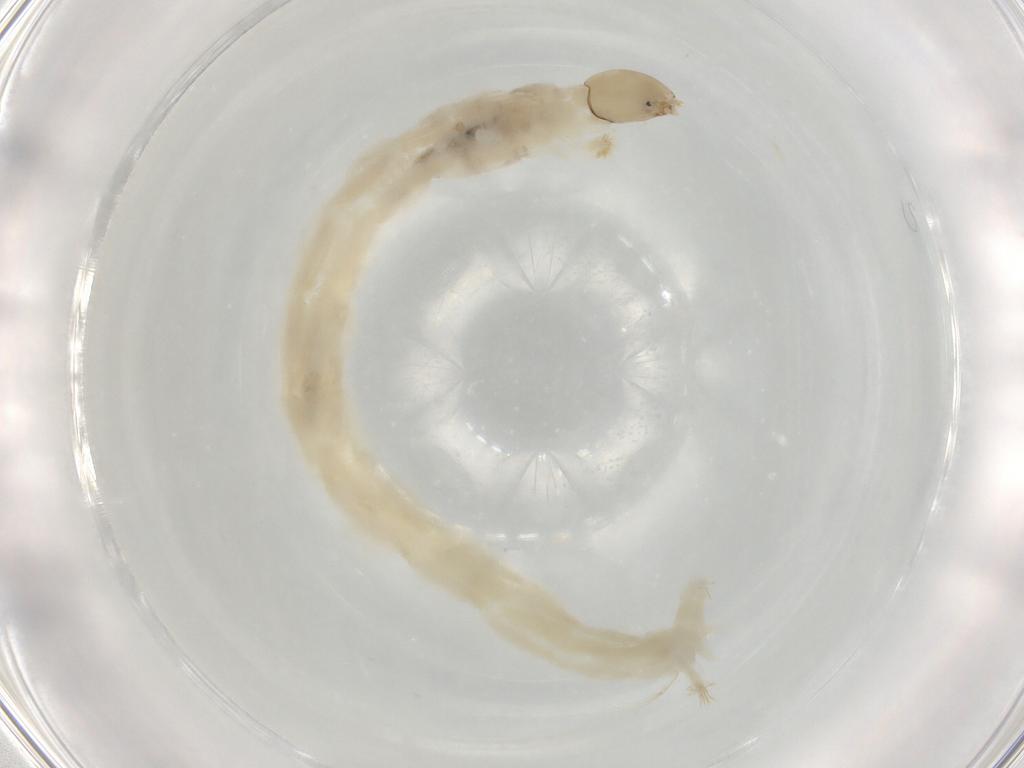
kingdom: Animalia
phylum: Arthropoda
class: Insecta
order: Diptera
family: Chironomidae
